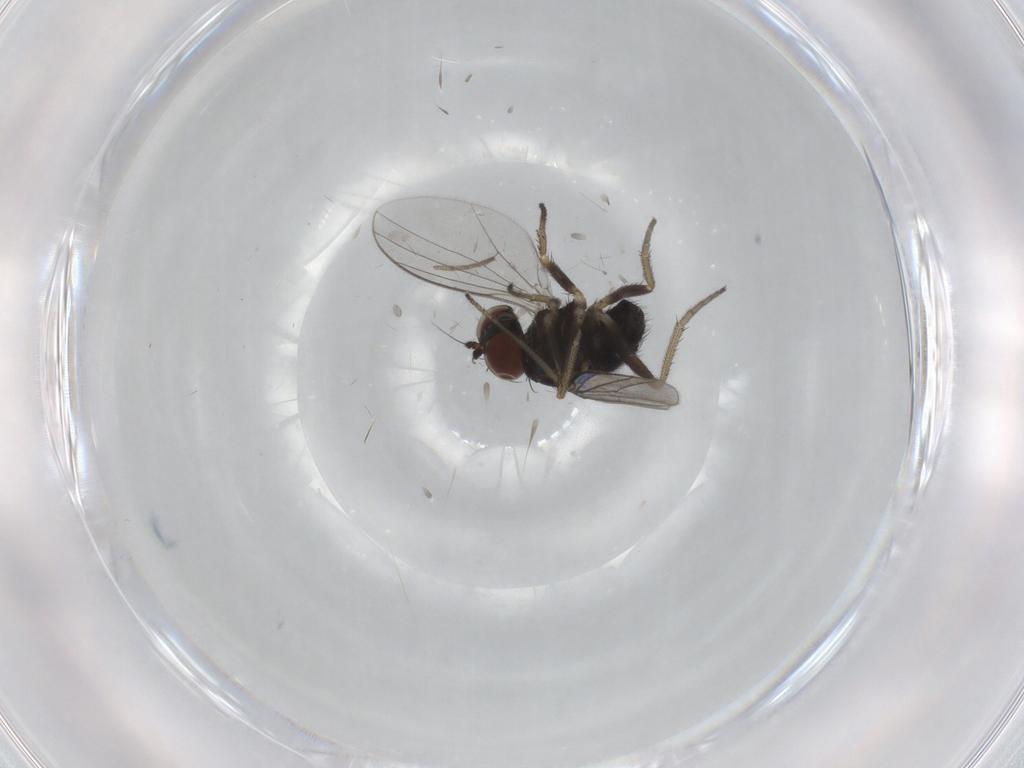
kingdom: Animalia
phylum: Arthropoda
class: Insecta
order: Diptera
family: Dolichopodidae
